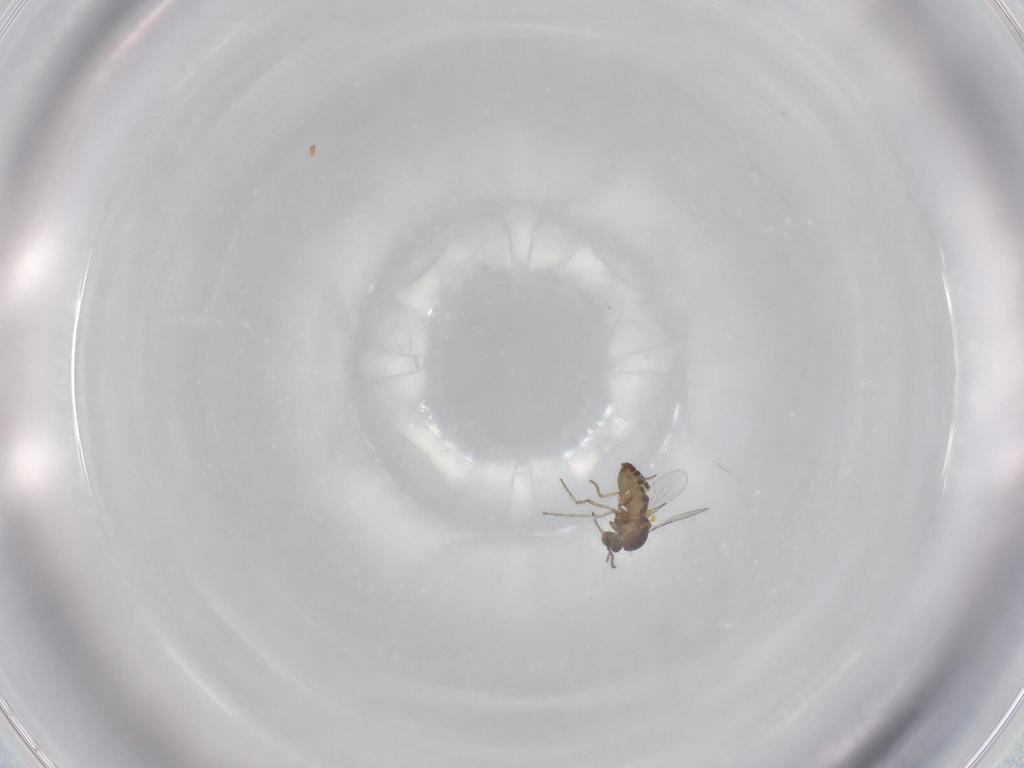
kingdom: Animalia
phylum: Arthropoda
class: Insecta
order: Diptera
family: Ceratopogonidae
